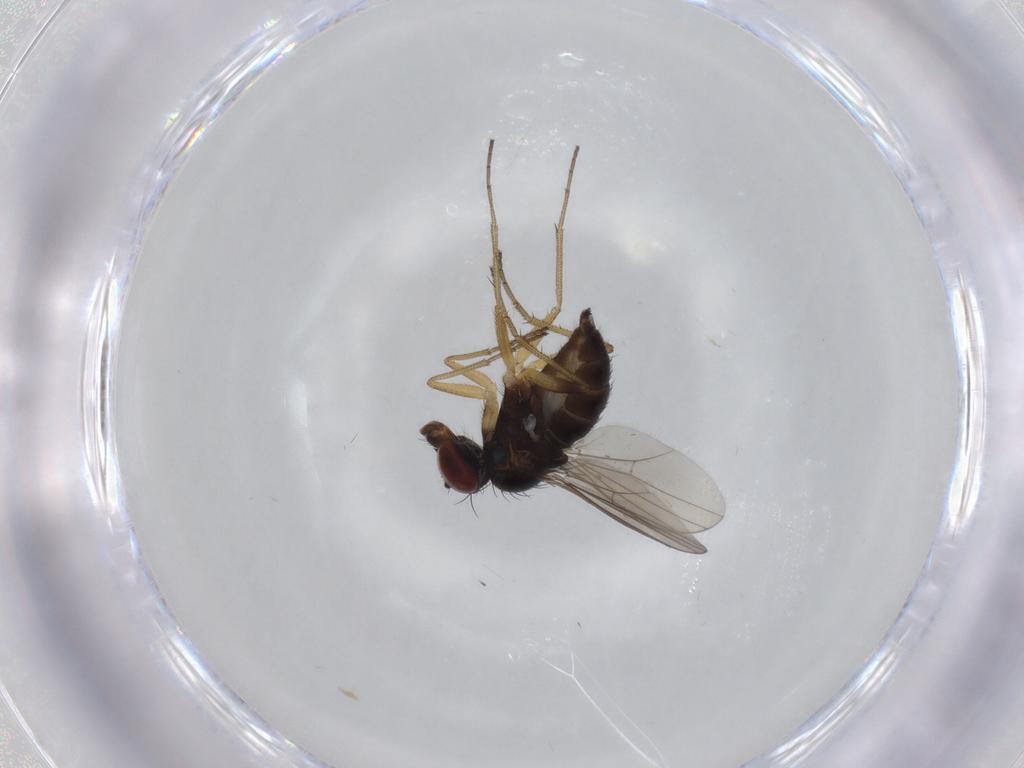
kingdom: Animalia
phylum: Arthropoda
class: Insecta
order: Diptera
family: Dolichopodidae
